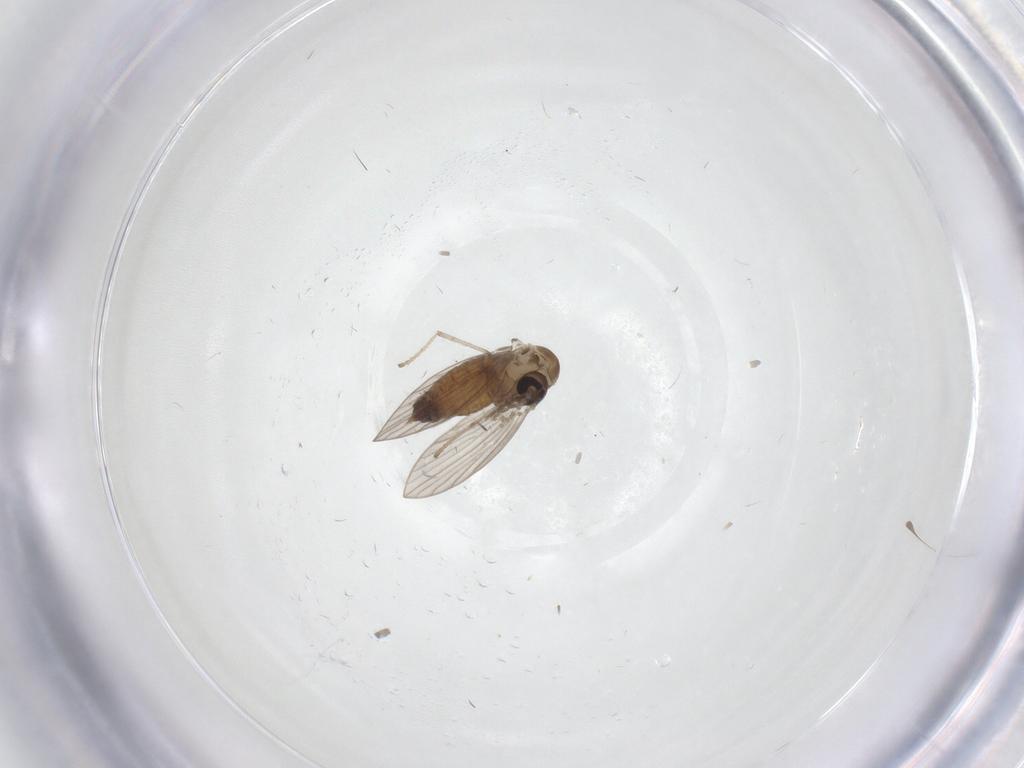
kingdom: Animalia
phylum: Arthropoda
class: Insecta
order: Diptera
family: Psychodidae
